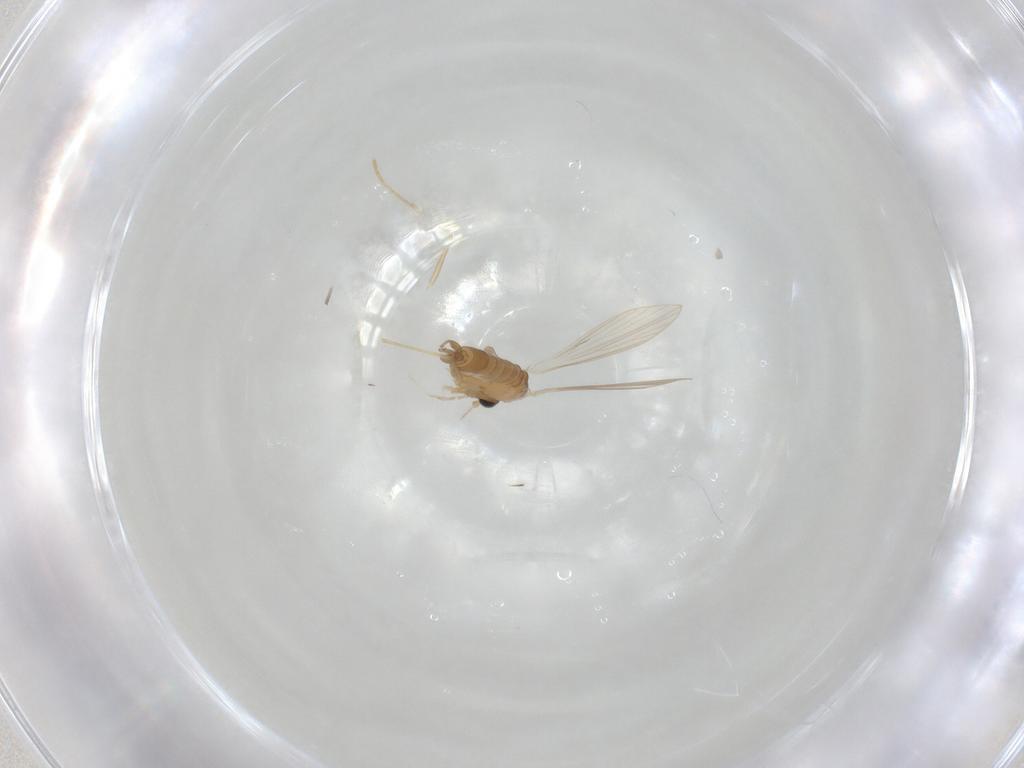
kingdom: Animalia
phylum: Arthropoda
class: Insecta
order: Diptera
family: Psychodidae
